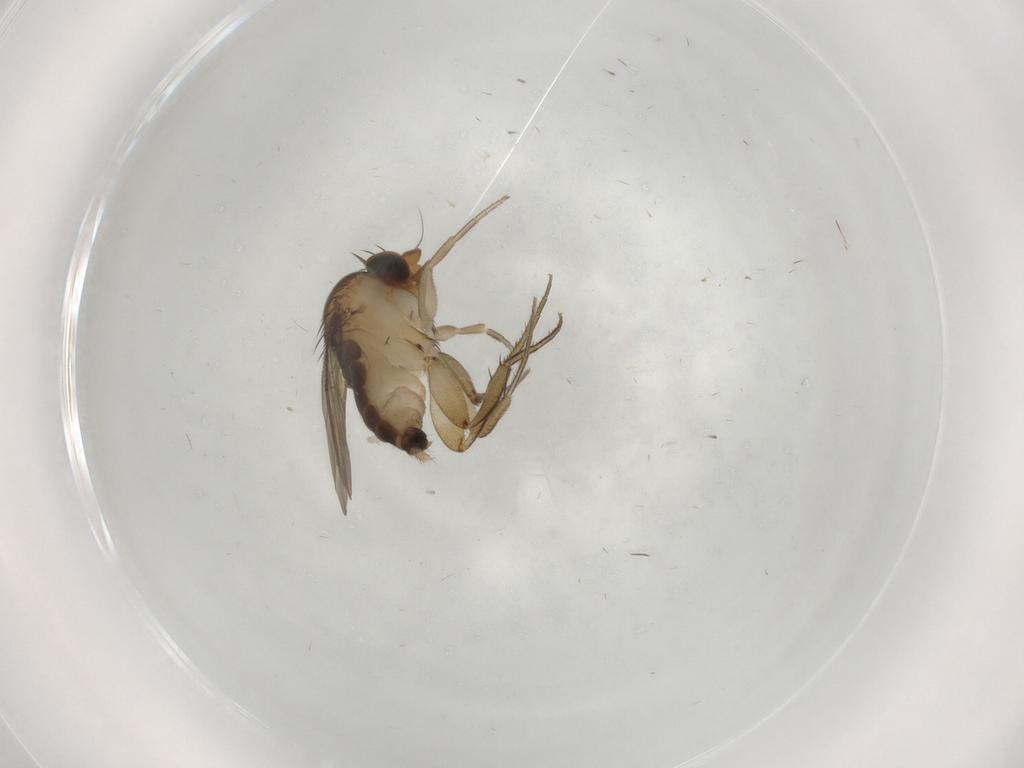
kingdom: Animalia
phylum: Arthropoda
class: Insecta
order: Diptera
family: Phoridae
